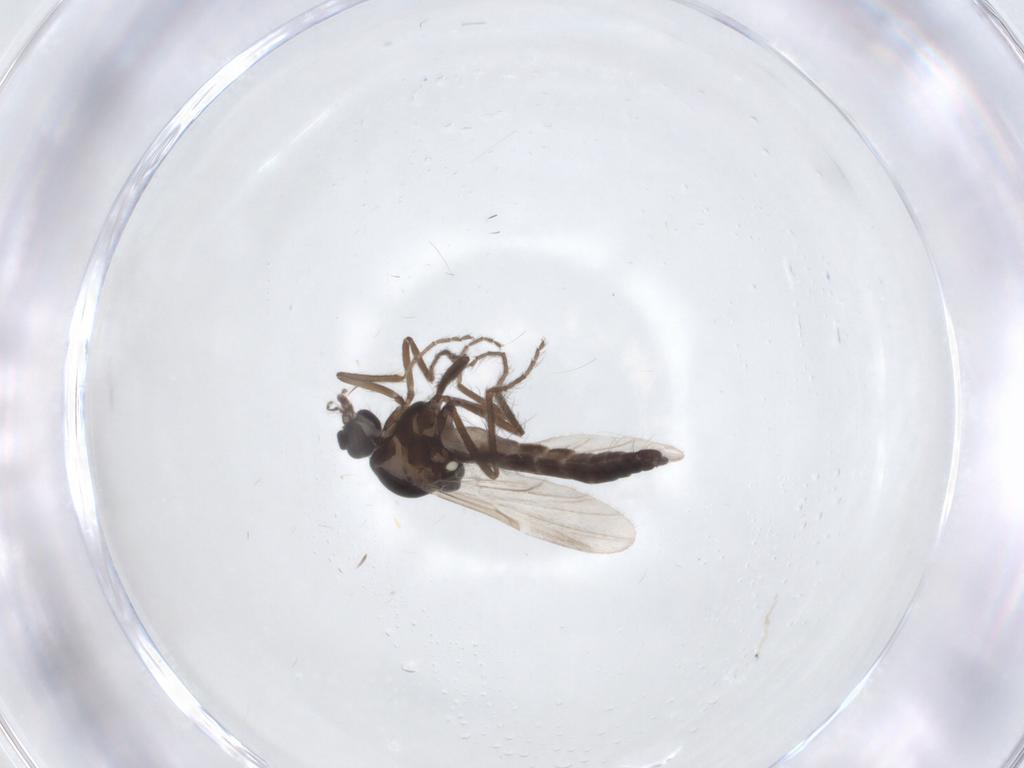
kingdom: Animalia
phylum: Arthropoda
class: Insecta
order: Diptera
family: Ceratopogonidae
